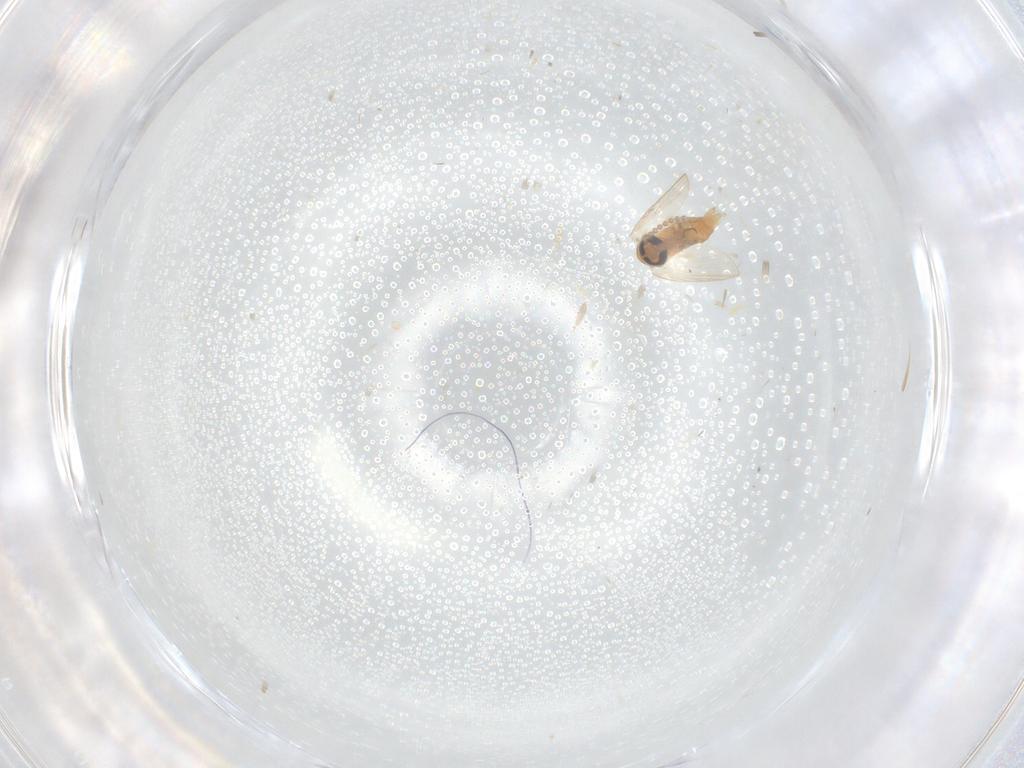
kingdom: Animalia
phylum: Arthropoda
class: Insecta
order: Diptera
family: Psychodidae
